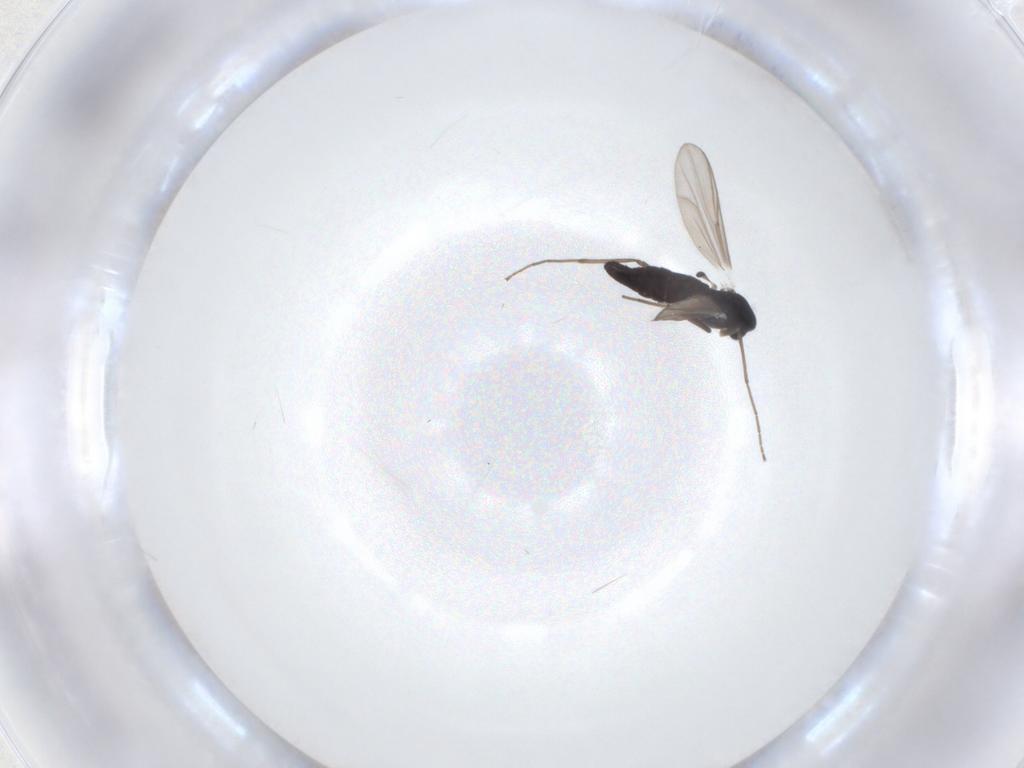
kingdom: Animalia
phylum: Arthropoda
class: Insecta
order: Diptera
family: Chironomidae
